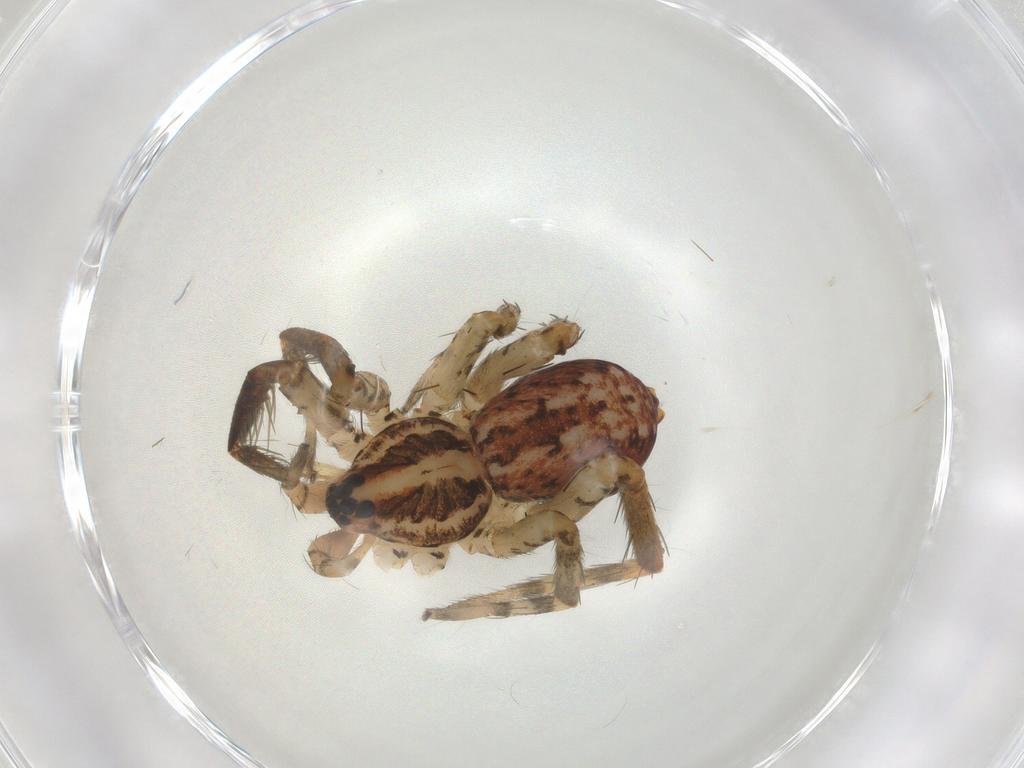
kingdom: Animalia
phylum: Arthropoda
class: Arachnida
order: Araneae
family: Miturgidae
